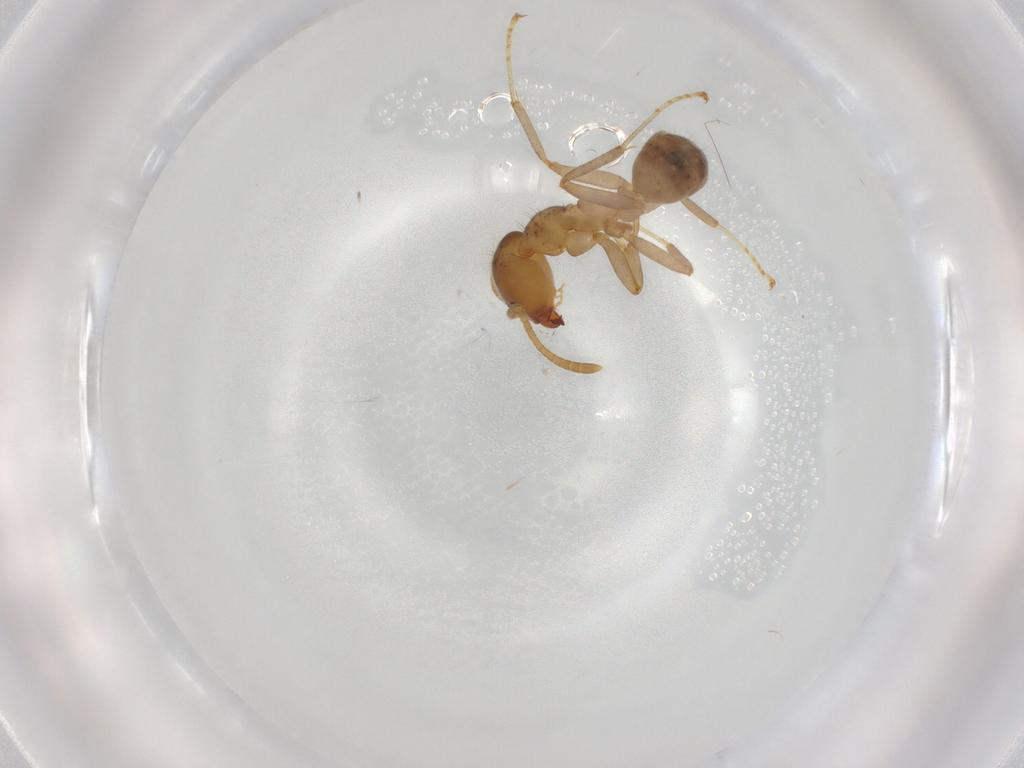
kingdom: Animalia
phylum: Arthropoda
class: Insecta
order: Hymenoptera
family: Formicidae
